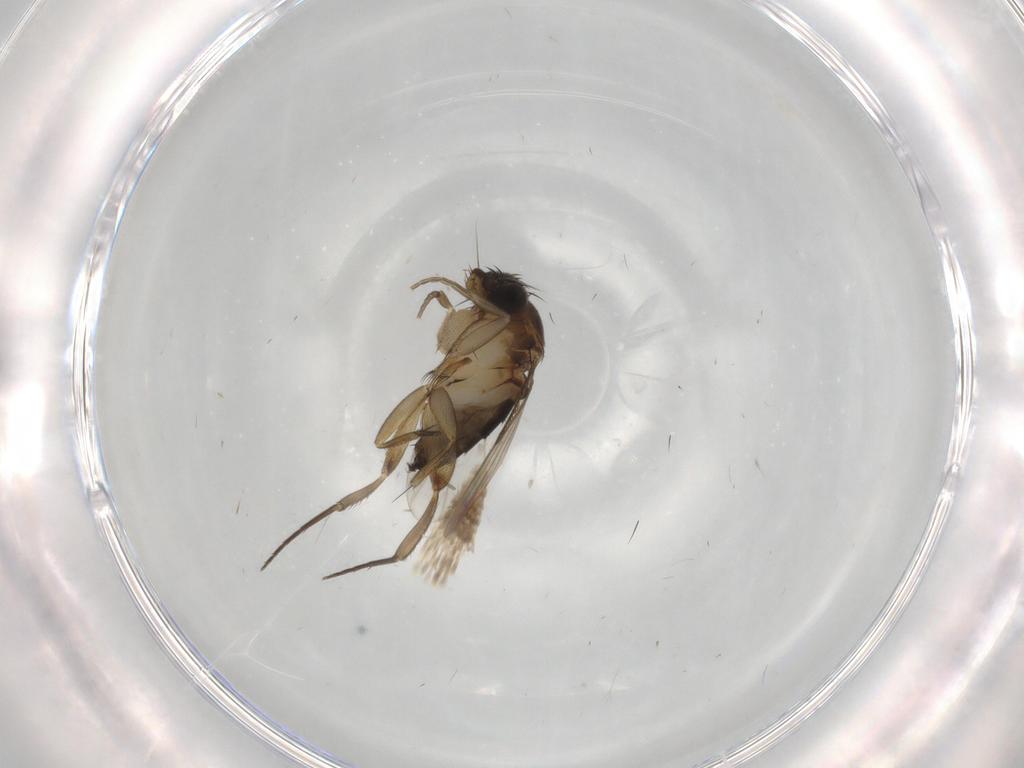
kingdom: Animalia
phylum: Arthropoda
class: Insecta
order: Diptera
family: Phoridae
